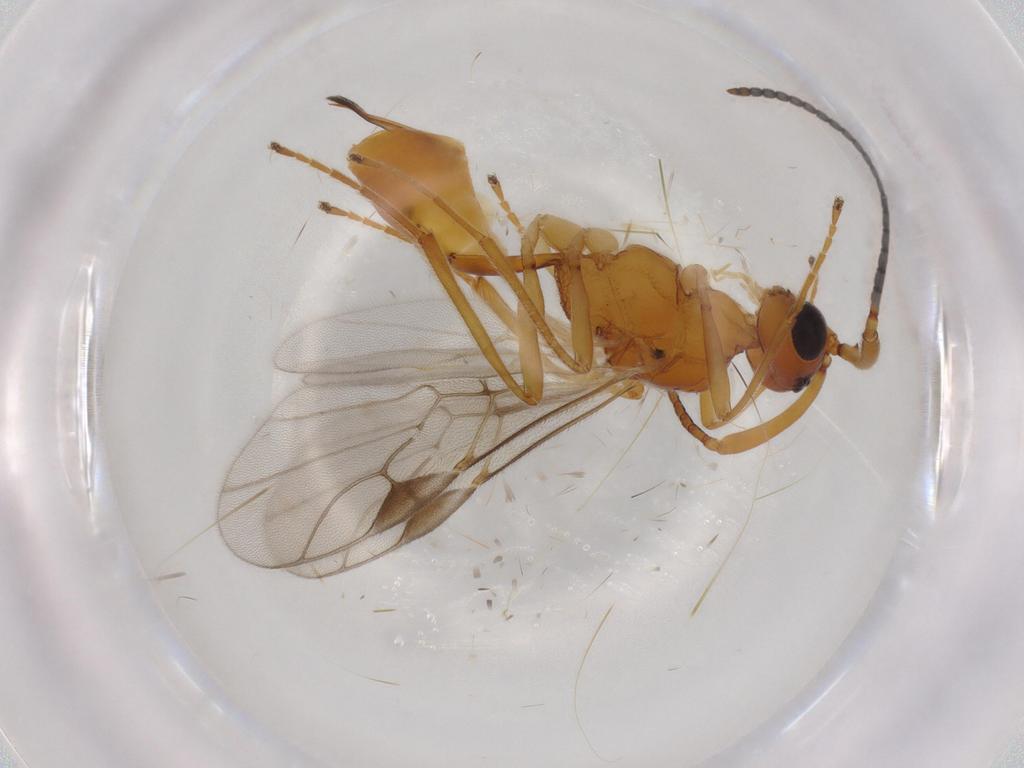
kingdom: Animalia
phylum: Arthropoda
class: Insecta
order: Hymenoptera
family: Braconidae
